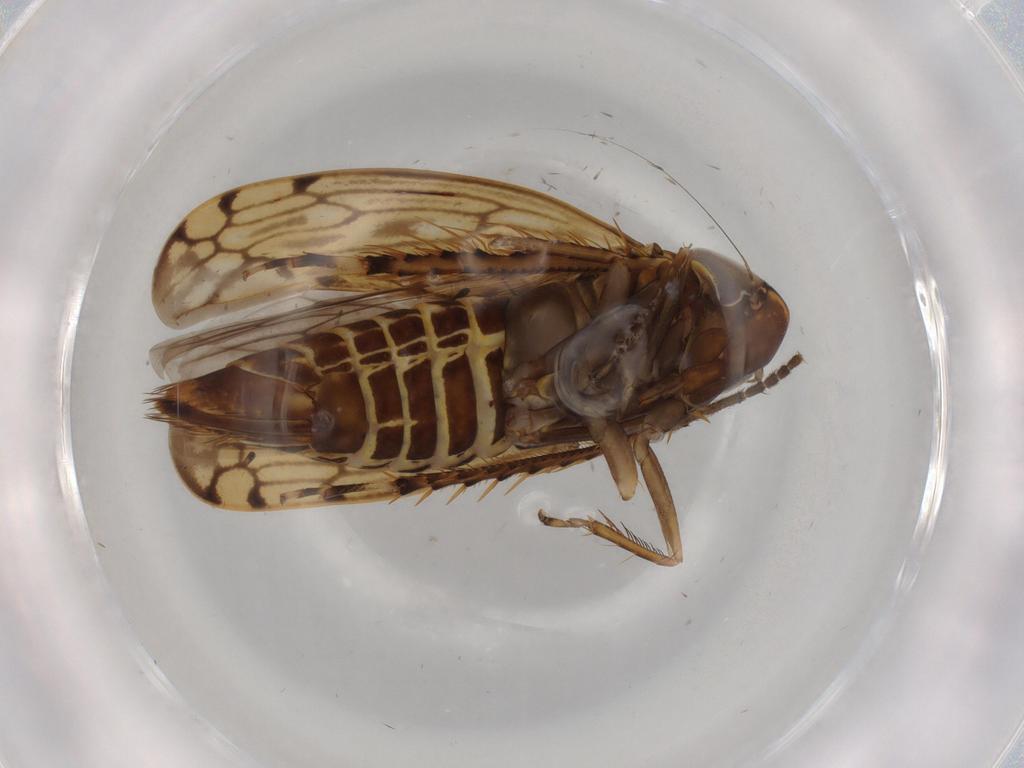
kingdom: Animalia
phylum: Arthropoda
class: Insecta
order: Hemiptera
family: Cicadellidae
